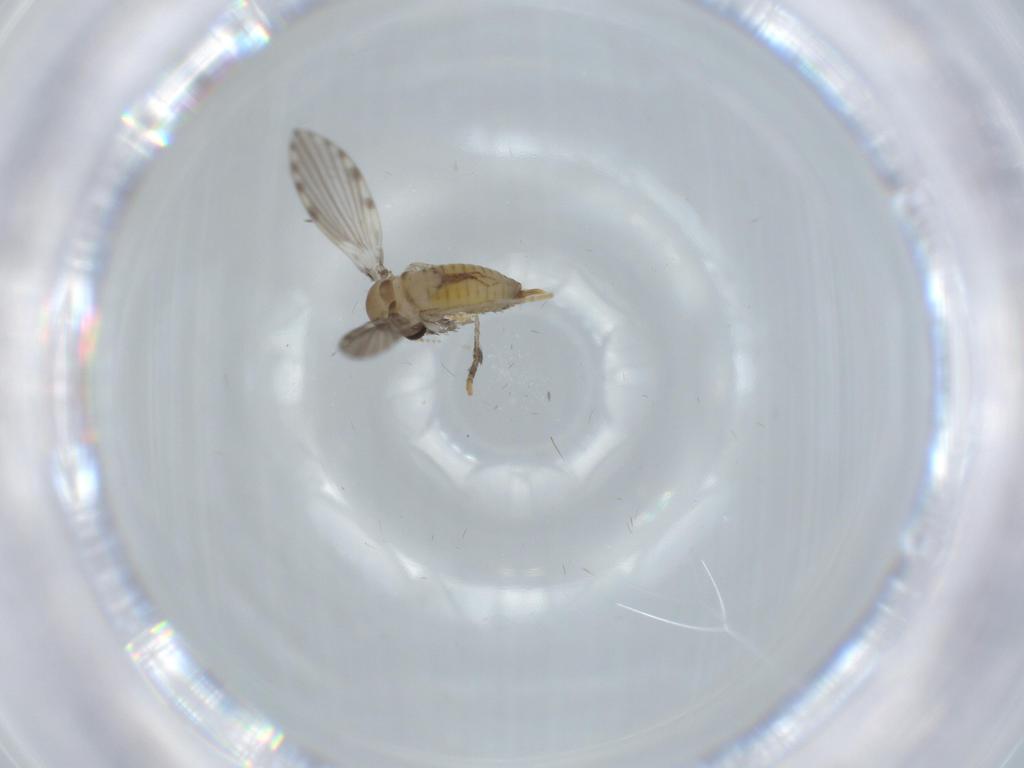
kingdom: Animalia
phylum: Arthropoda
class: Insecta
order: Diptera
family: Psychodidae
